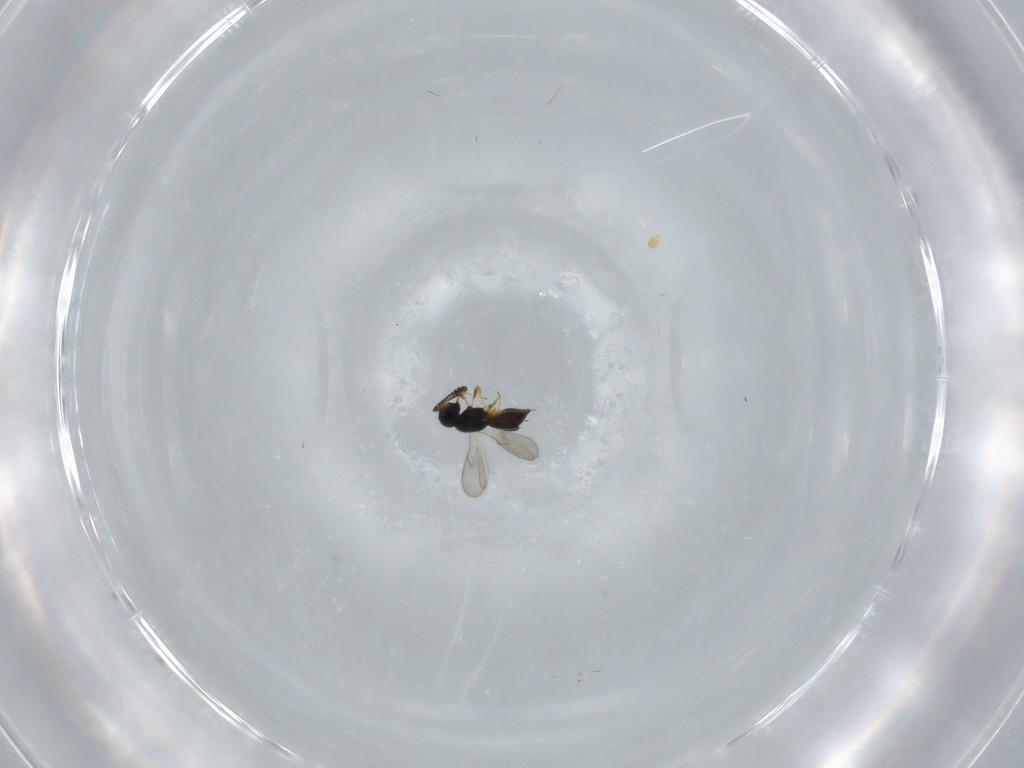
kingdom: Animalia
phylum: Arthropoda
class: Insecta
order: Hymenoptera
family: Scelionidae
